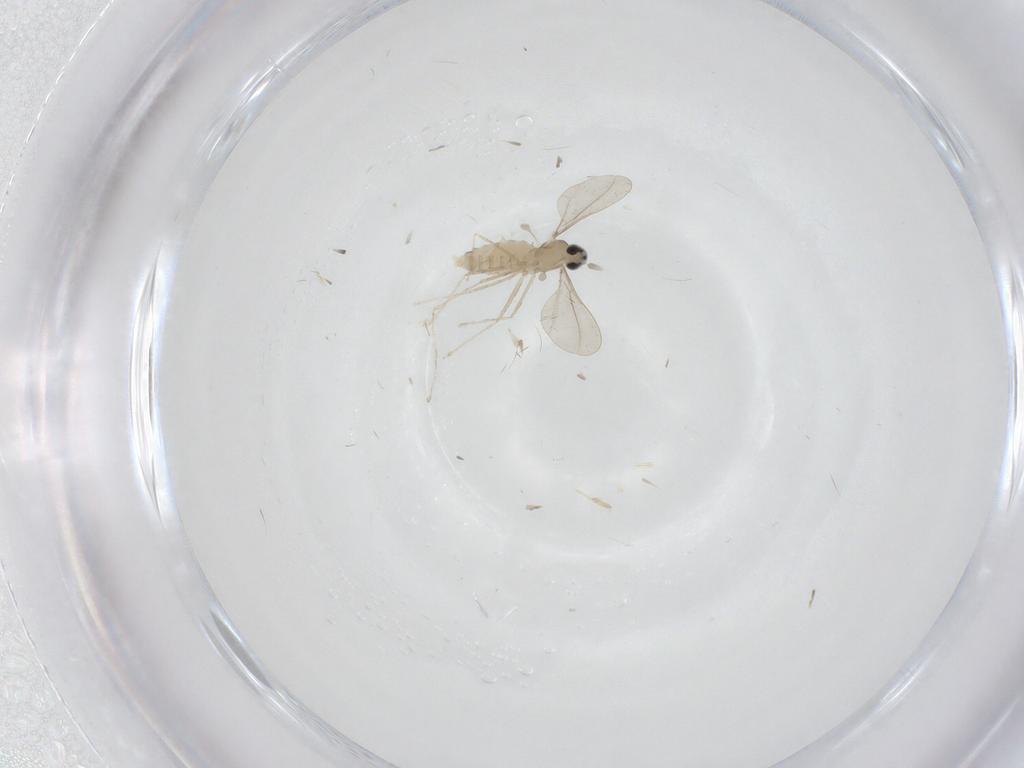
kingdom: Animalia
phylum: Arthropoda
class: Insecta
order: Diptera
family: Cecidomyiidae
